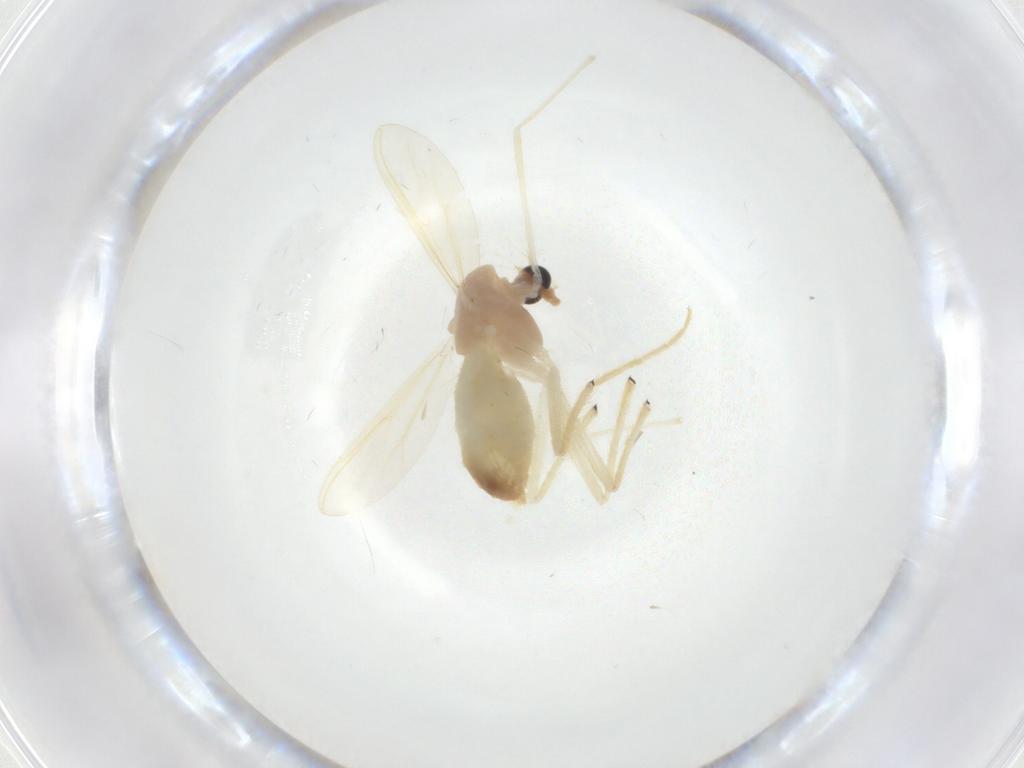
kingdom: Animalia
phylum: Arthropoda
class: Insecta
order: Diptera
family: Chironomidae
